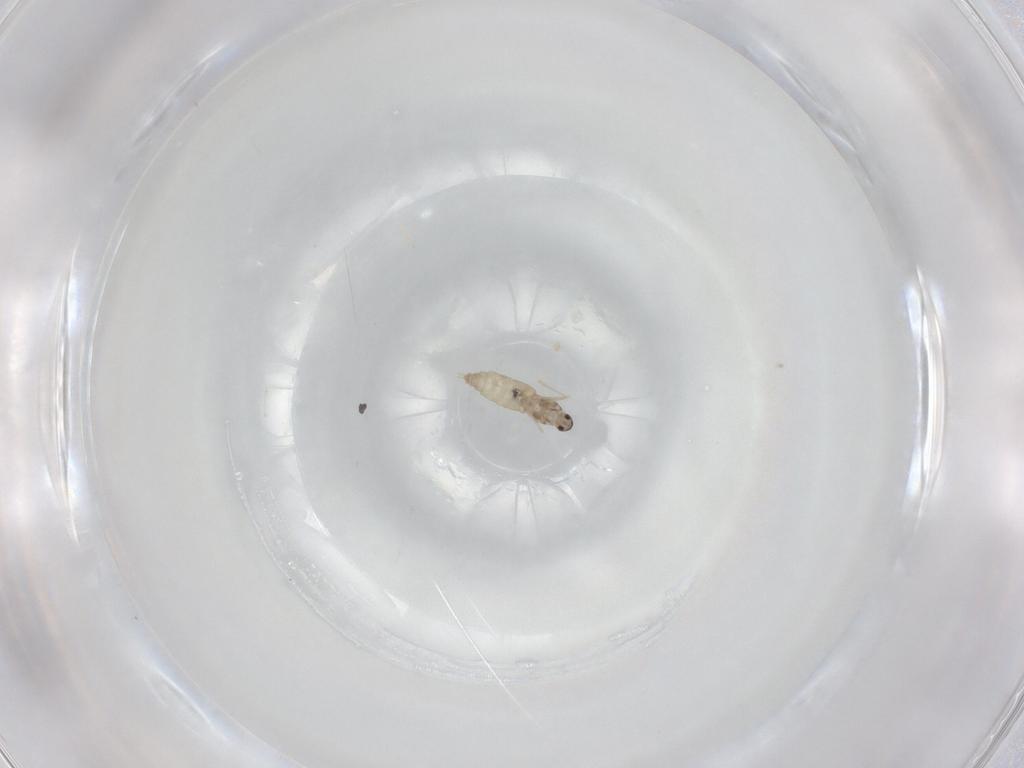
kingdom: Animalia
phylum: Arthropoda
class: Insecta
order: Diptera
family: Cecidomyiidae
